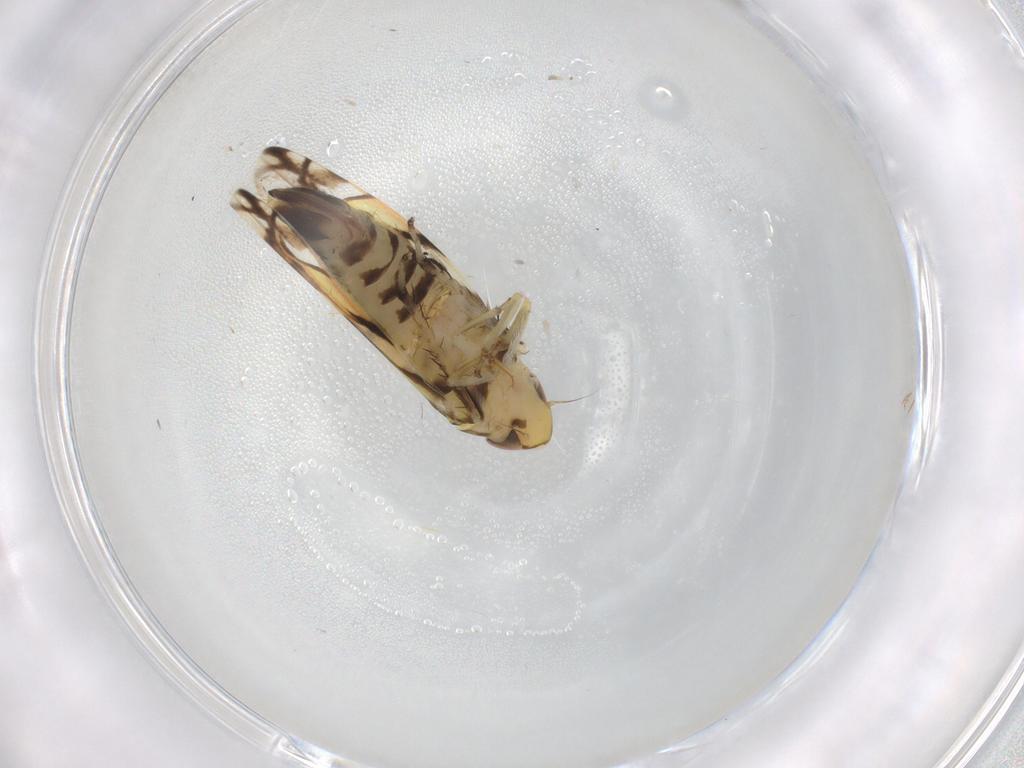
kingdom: Animalia
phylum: Arthropoda
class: Insecta
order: Hemiptera
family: Cicadellidae
